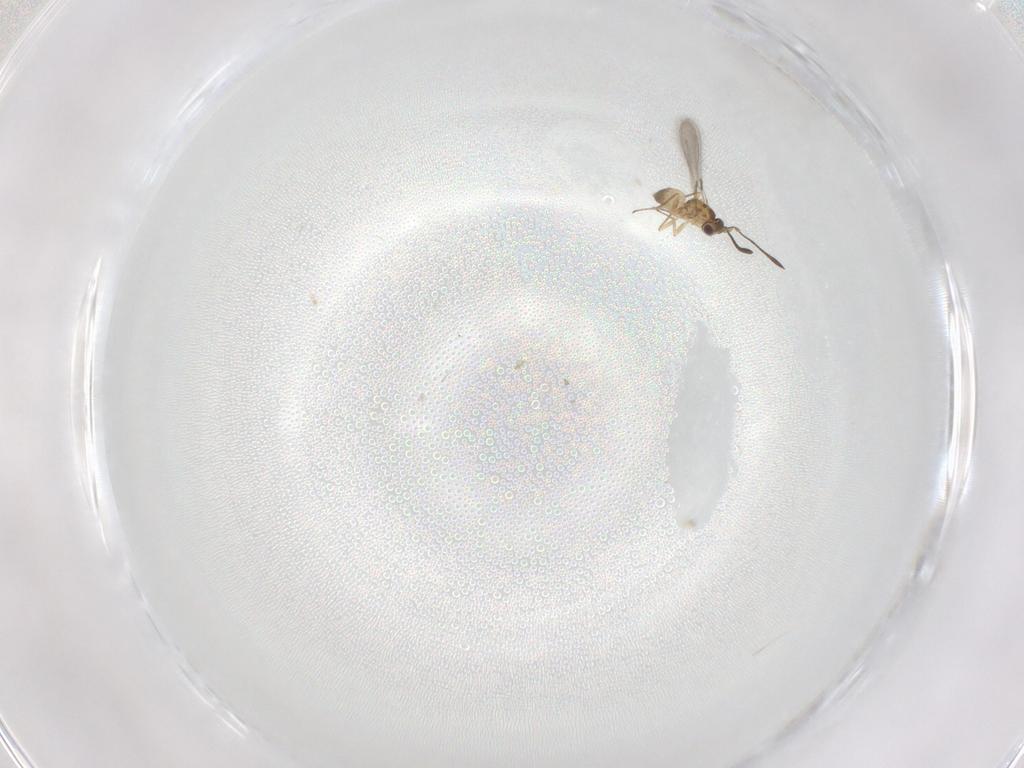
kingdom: Animalia
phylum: Arthropoda
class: Insecta
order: Hymenoptera
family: Mymaridae
